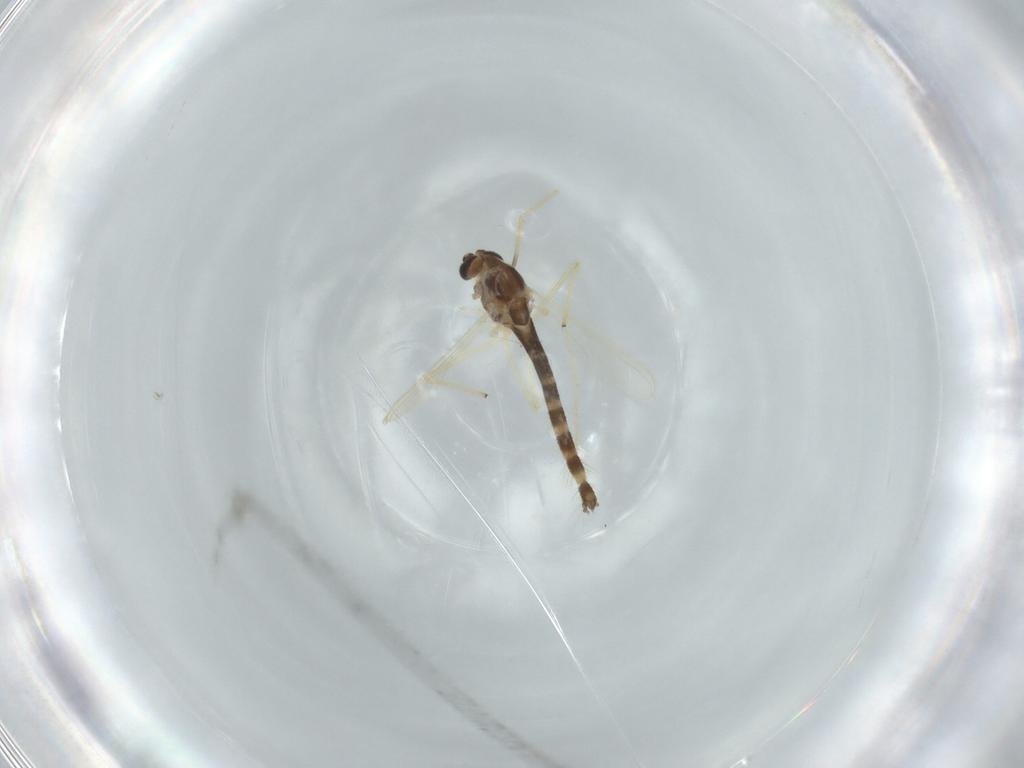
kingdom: Animalia
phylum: Arthropoda
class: Insecta
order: Diptera
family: Chironomidae
